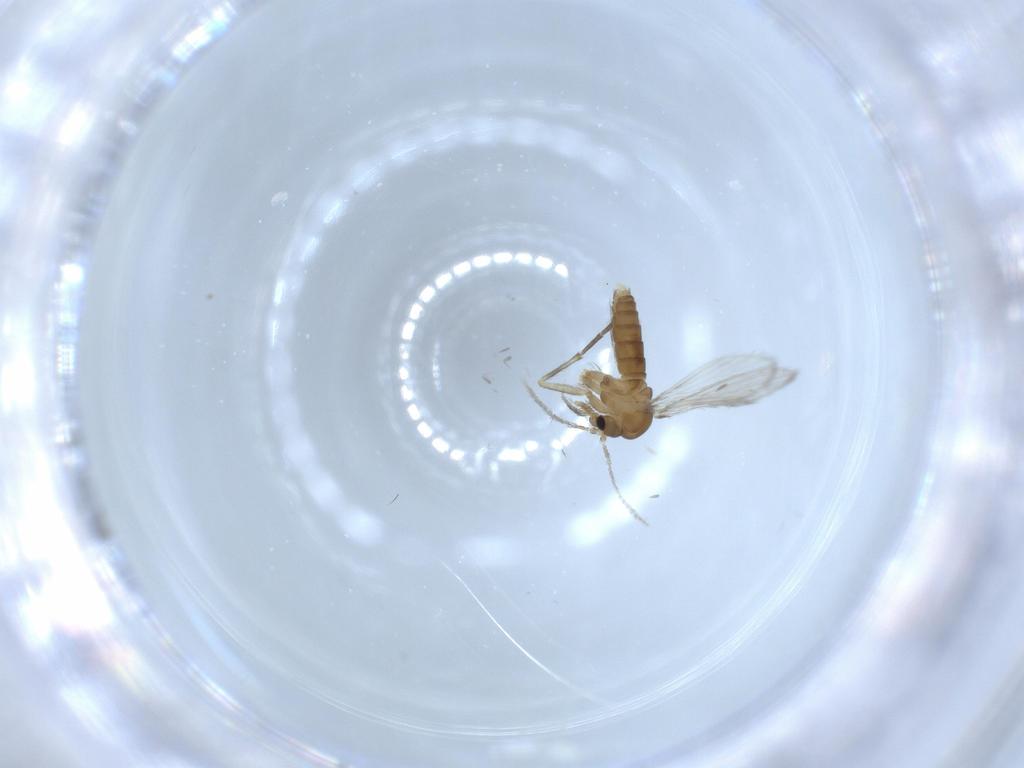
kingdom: Animalia
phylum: Arthropoda
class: Insecta
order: Diptera
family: Psychodidae
